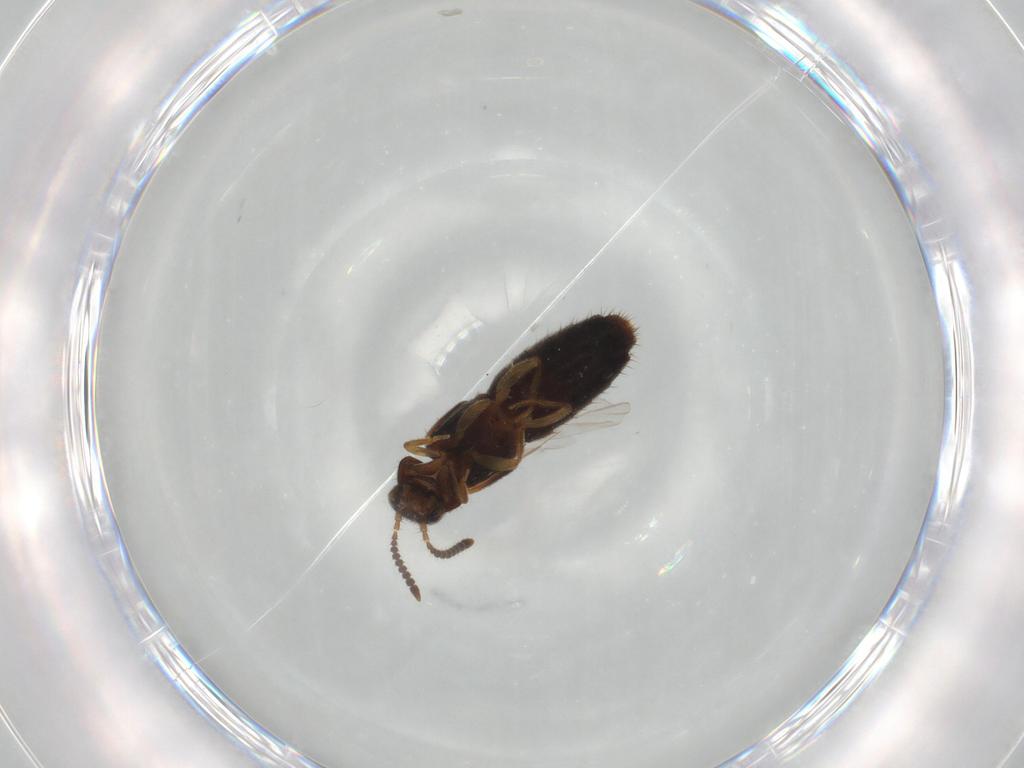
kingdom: Animalia
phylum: Arthropoda
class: Insecta
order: Coleoptera
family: Staphylinidae
